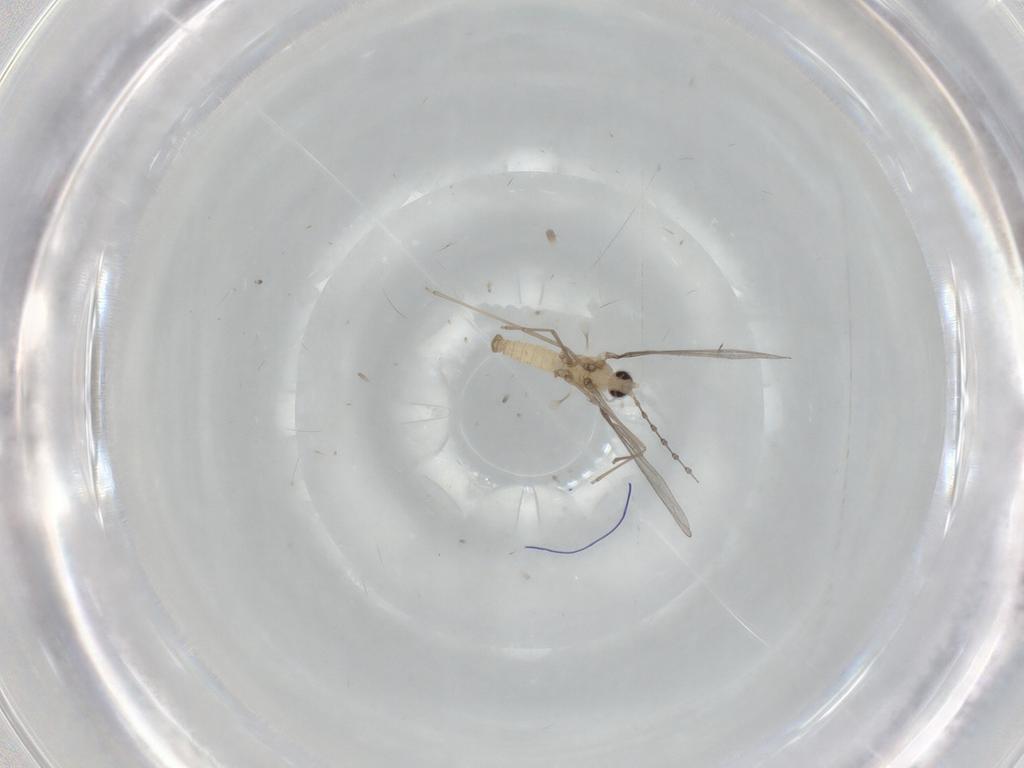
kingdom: Animalia
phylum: Arthropoda
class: Insecta
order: Diptera
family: Cecidomyiidae
